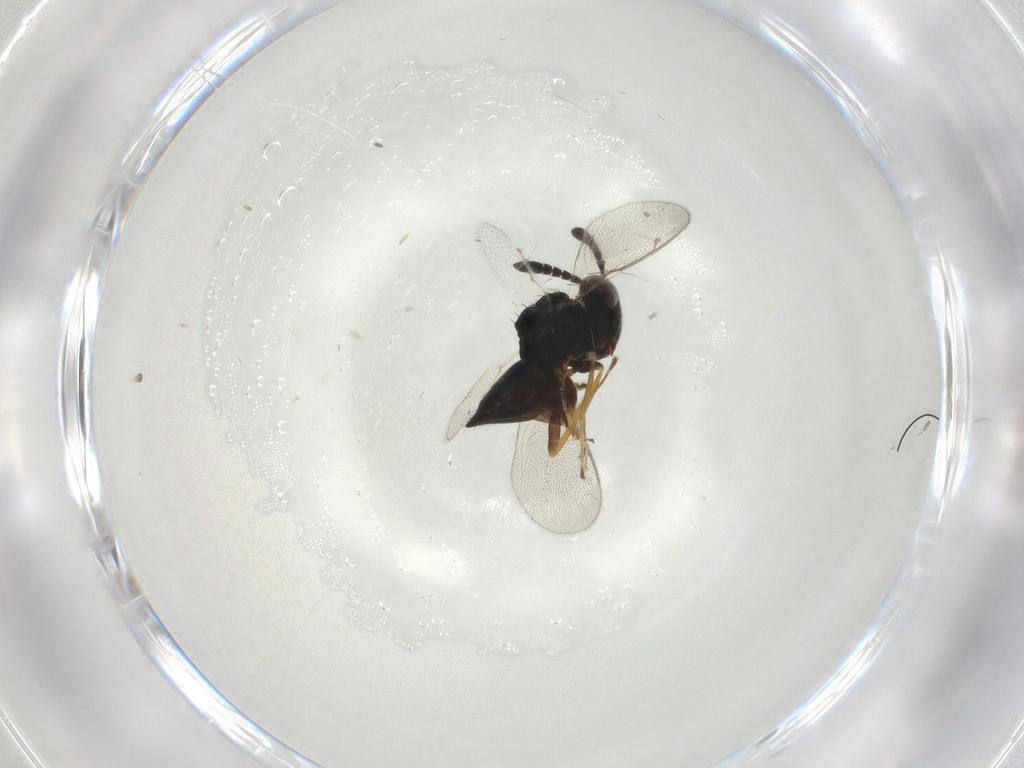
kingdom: Animalia
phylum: Arthropoda
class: Insecta
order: Hymenoptera
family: Pteromalidae
